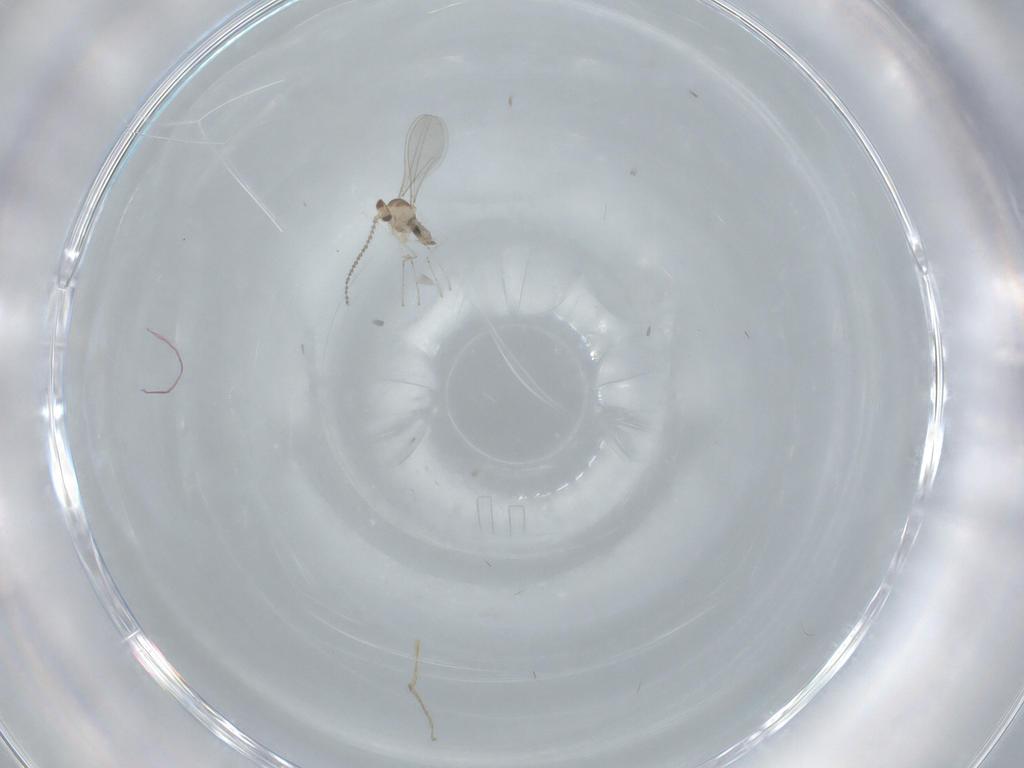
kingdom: Animalia
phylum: Arthropoda
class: Insecta
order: Diptera
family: Cecidomyiidae
